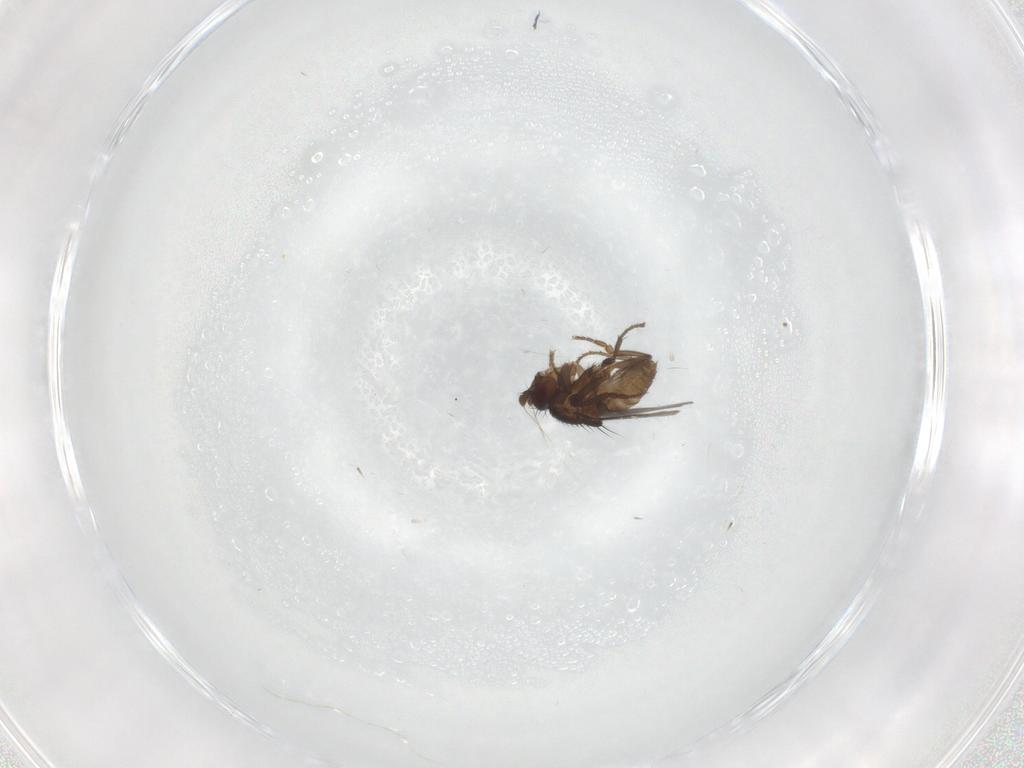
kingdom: Animalia
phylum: Arthropoda
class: Insecta
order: Diptera
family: Sphaeroceridae
